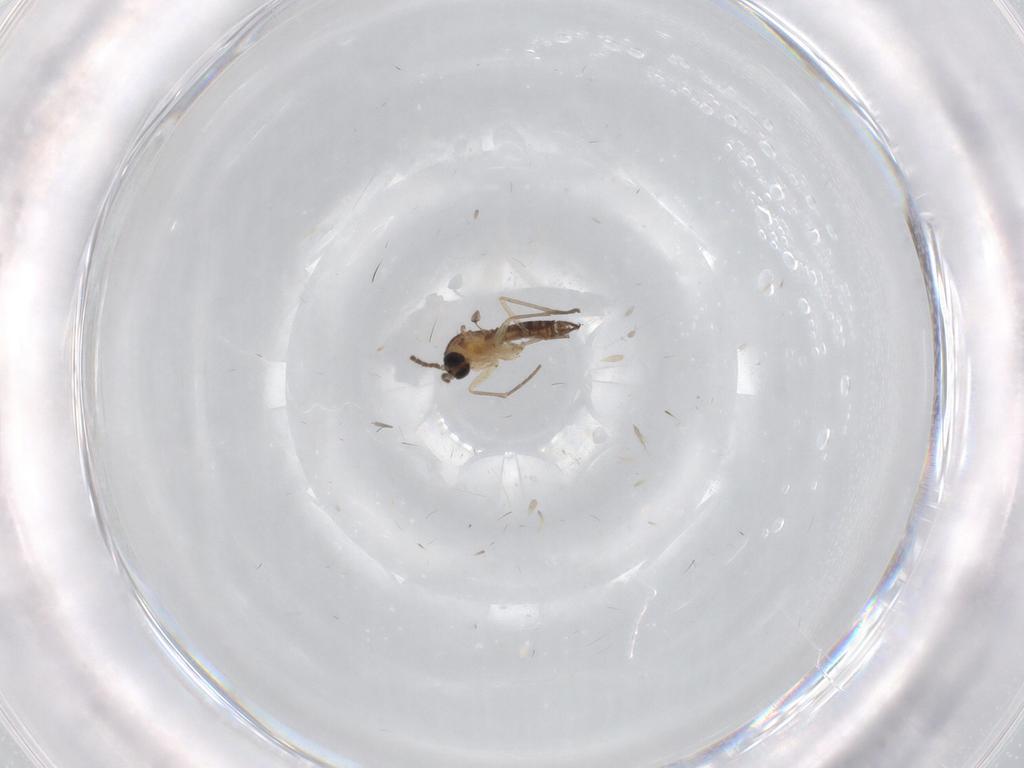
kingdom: Animalia
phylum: Arthropoda
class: Insecta
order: Diptera
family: Sciaridae
